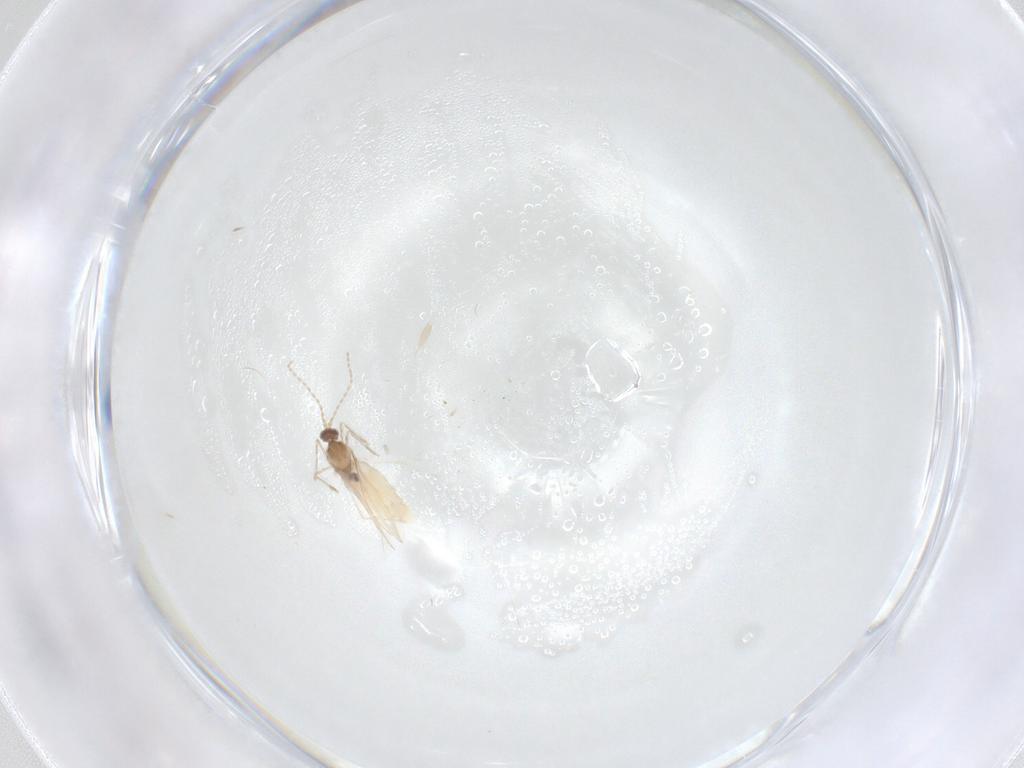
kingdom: Animalia
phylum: Arthropoda
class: Insecta
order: Diptera
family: Cecidomyiidae
